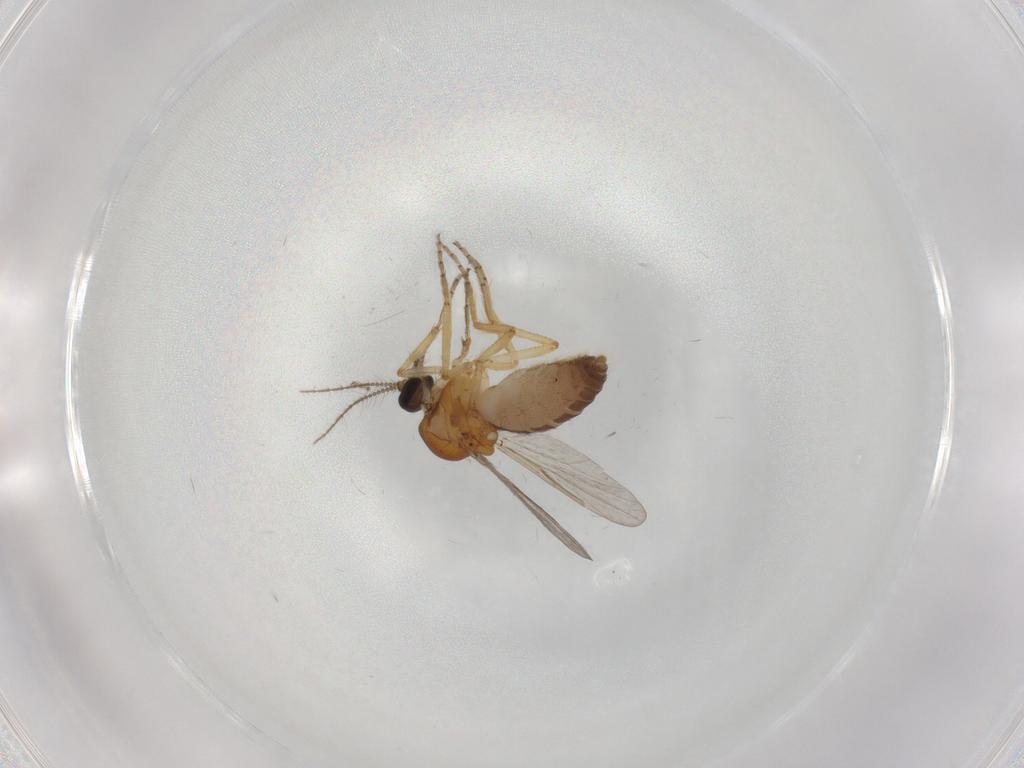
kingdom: Animalia
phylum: Arthropoda
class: Insecta
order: Diptera
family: Ceratopogonidae
